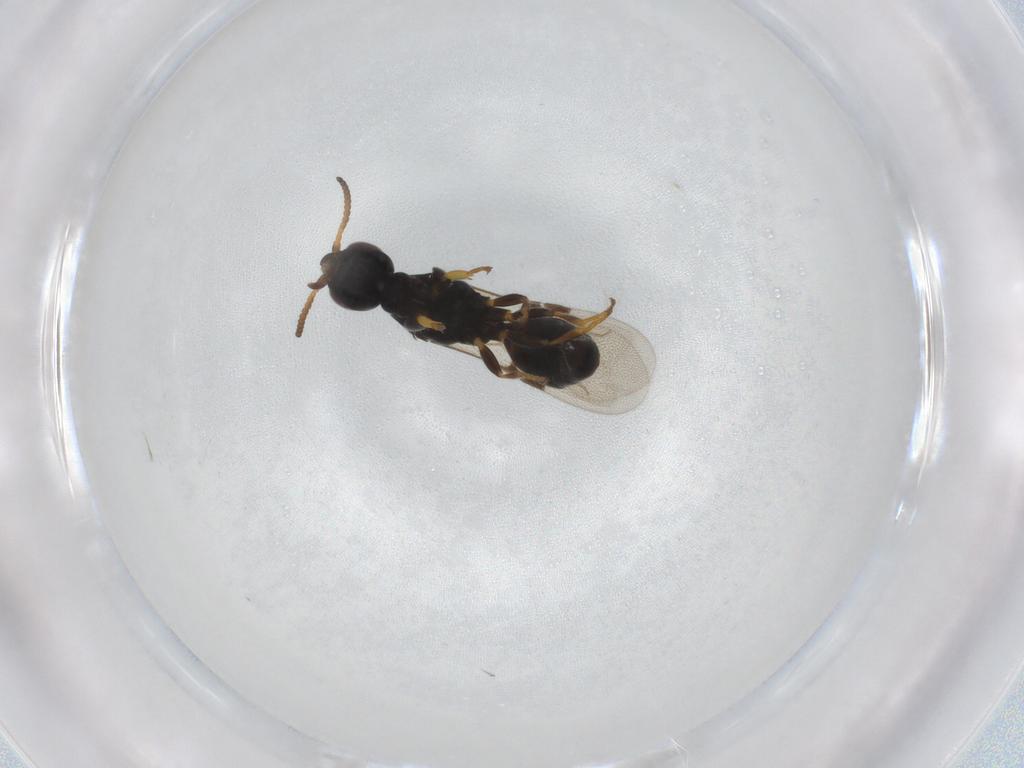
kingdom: Animalia
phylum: Arthropoda
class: Insecta
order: Hymenoptera
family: Bethylidae
